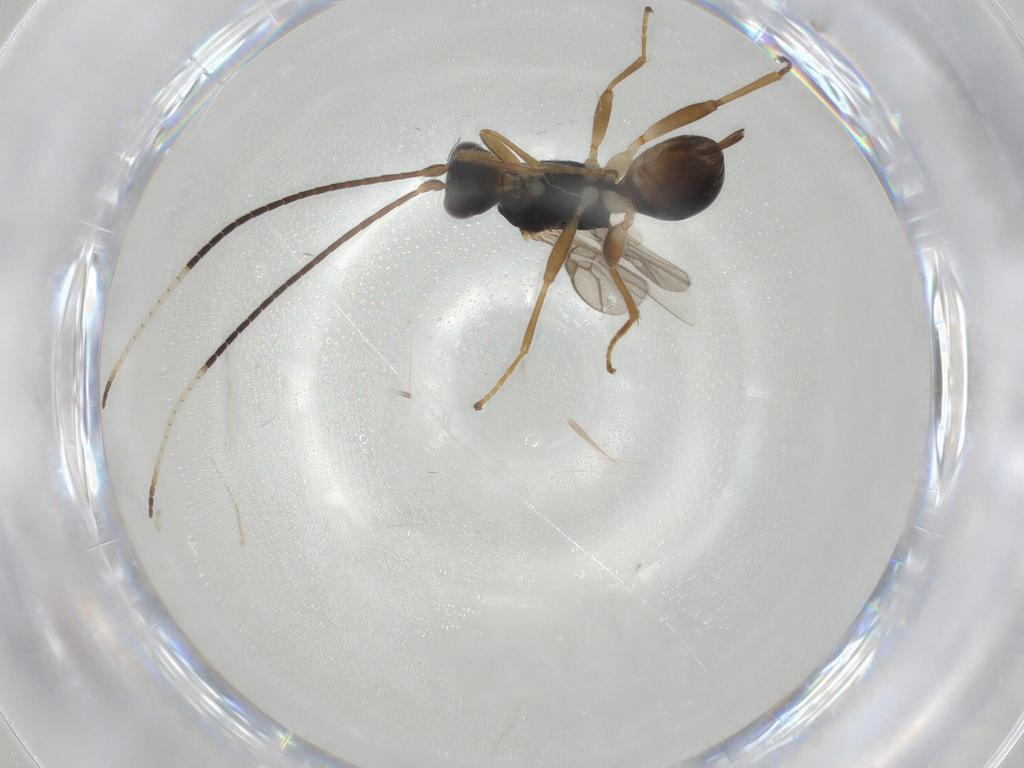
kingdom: Animalia
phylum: Arthropoda
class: Insecta
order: Hymenoptera
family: Braconidae
